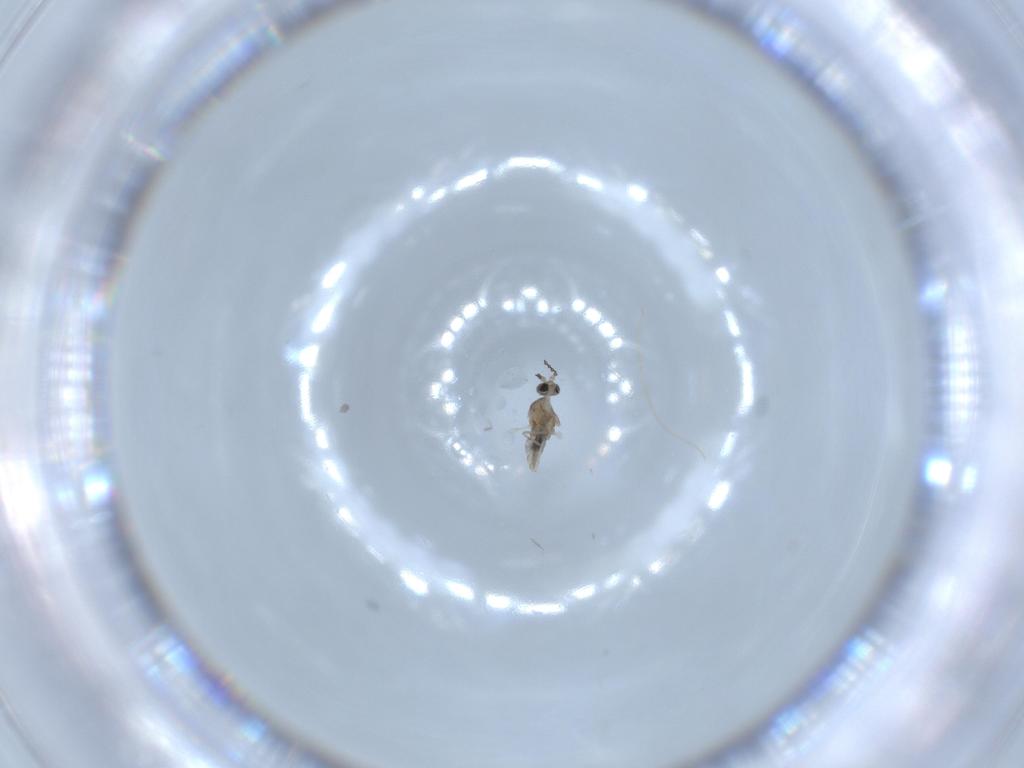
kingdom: Animalia
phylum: Arthropoda
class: Insecta
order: Diptera
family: Cecidomyiidae
